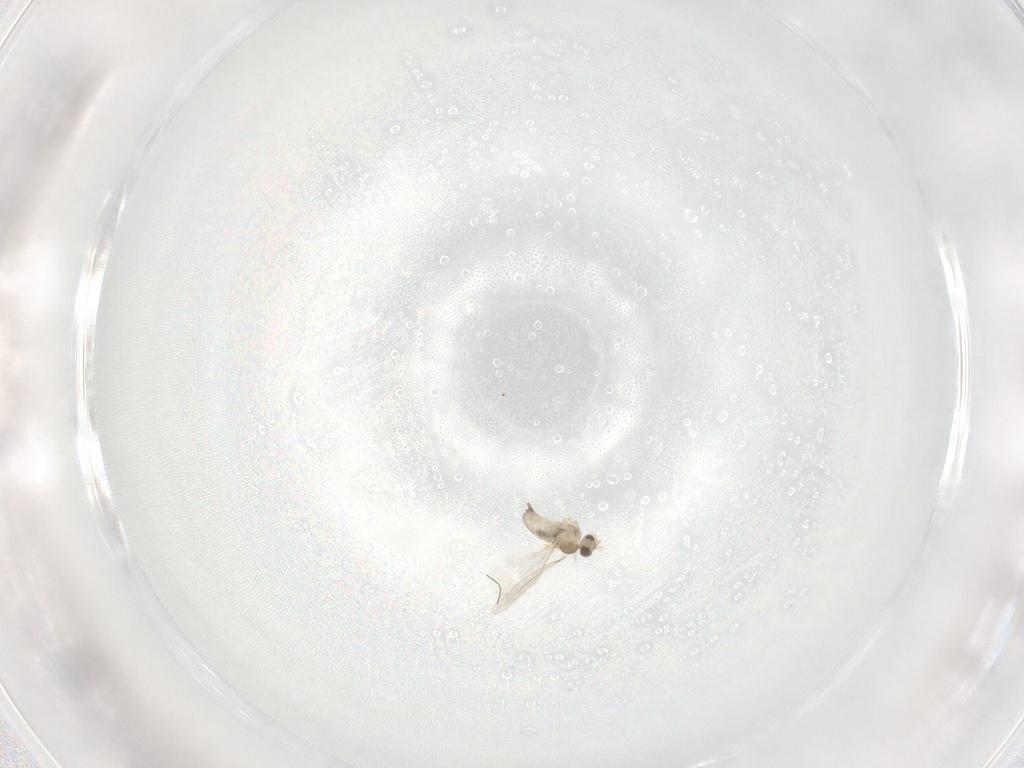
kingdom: Animalia
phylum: Arthropoda
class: Insecta
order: Diptera
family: Cecidomyiidae
